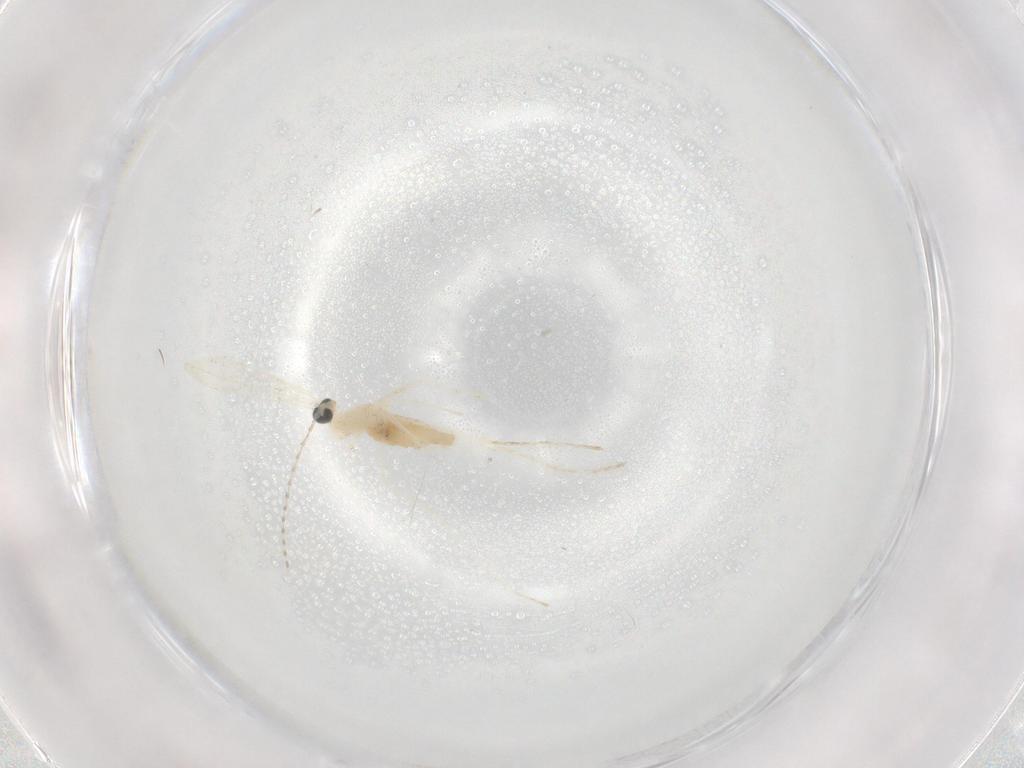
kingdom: Animalia
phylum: Arthropoda
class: Insecta
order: Diptera
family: Cecidomyiidae
